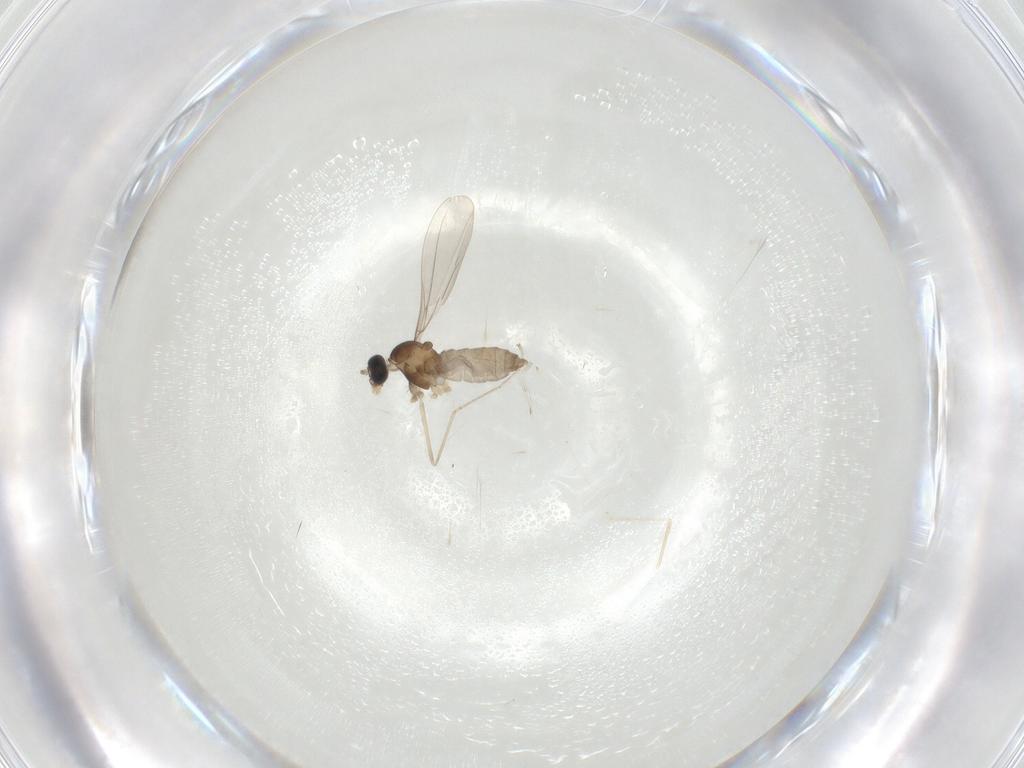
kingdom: Animalia
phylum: Arthropoda
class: Insecta
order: Diptera
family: Cecidomyiidae
